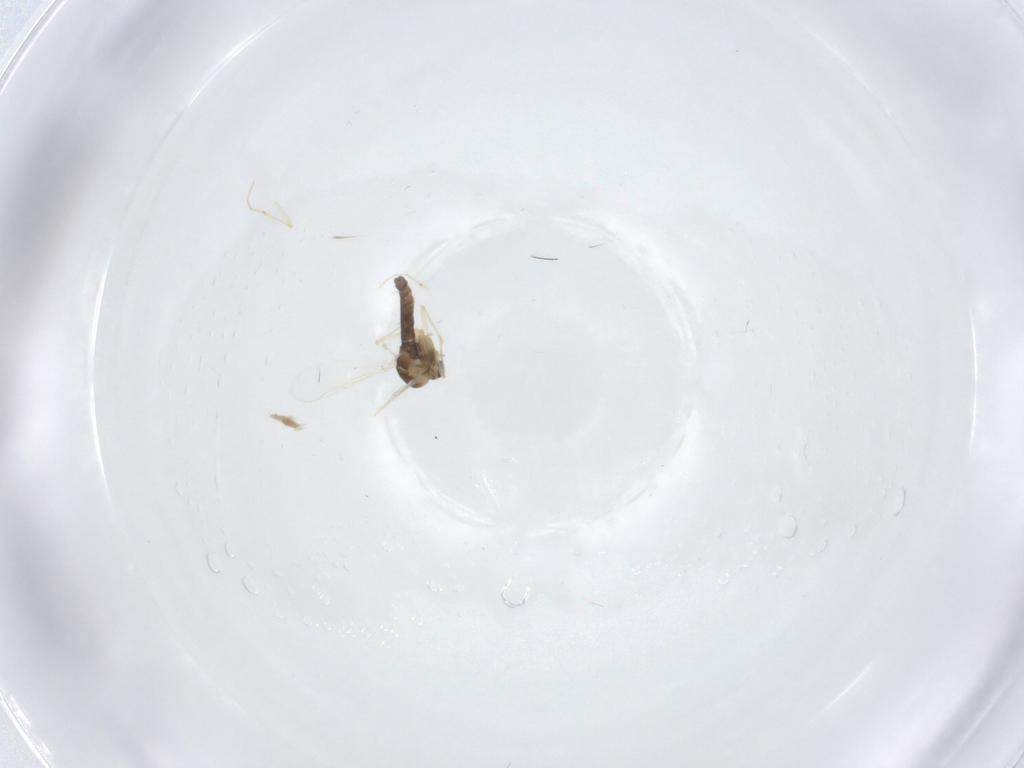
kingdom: Animalia
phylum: Arthropoda
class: Insecta
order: Diptera
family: Chironomidae
